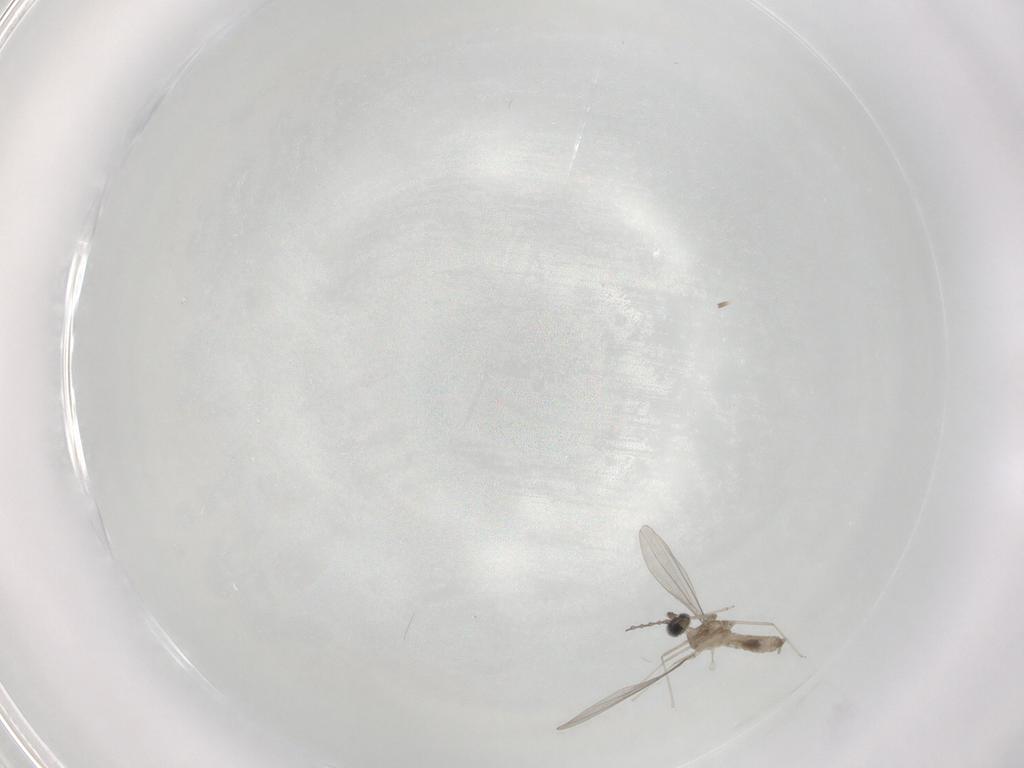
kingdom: Animalia
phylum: Arthropoda
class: Insecta
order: Diptera
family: Cecidomyiidae
